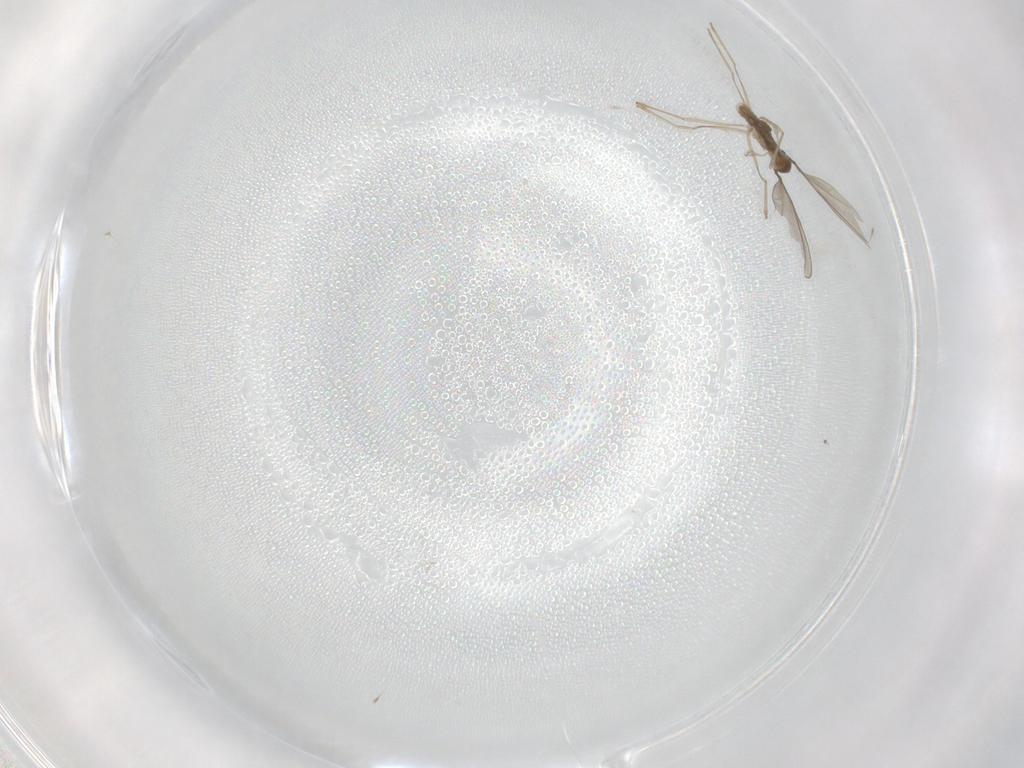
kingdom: Animalia
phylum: Arthropoda
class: Insecta
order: Diptera
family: Cecidomyiidae
